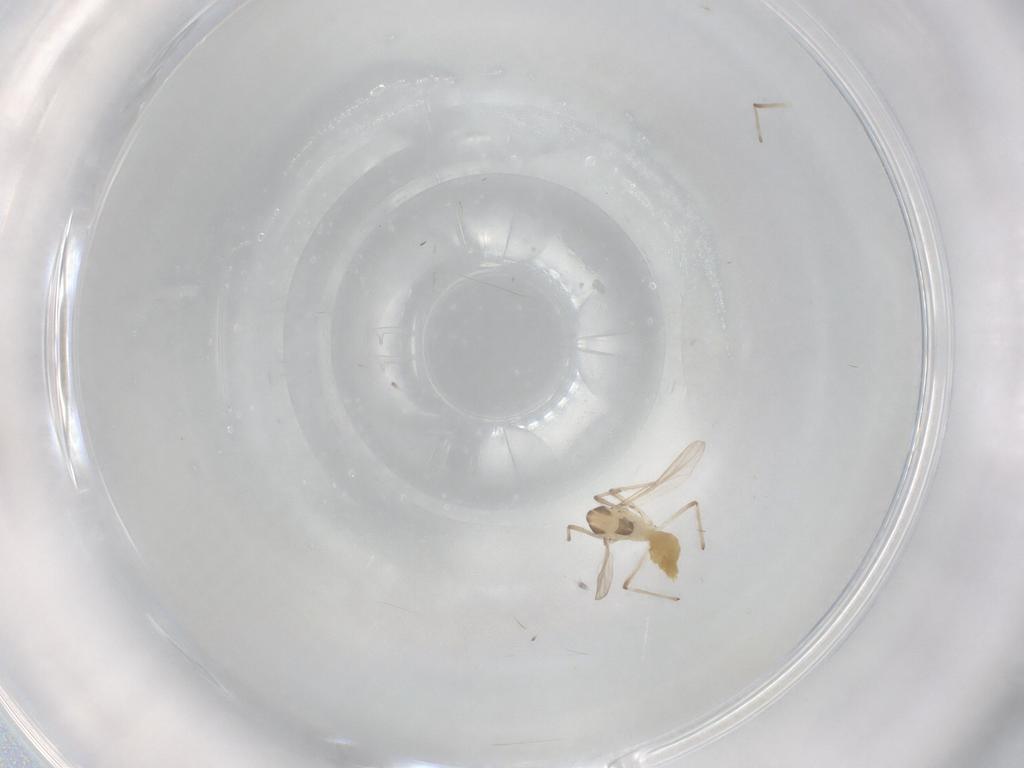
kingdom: Animalia
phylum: Arthropoda
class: Insecta
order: Diptera
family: Chironomidae
